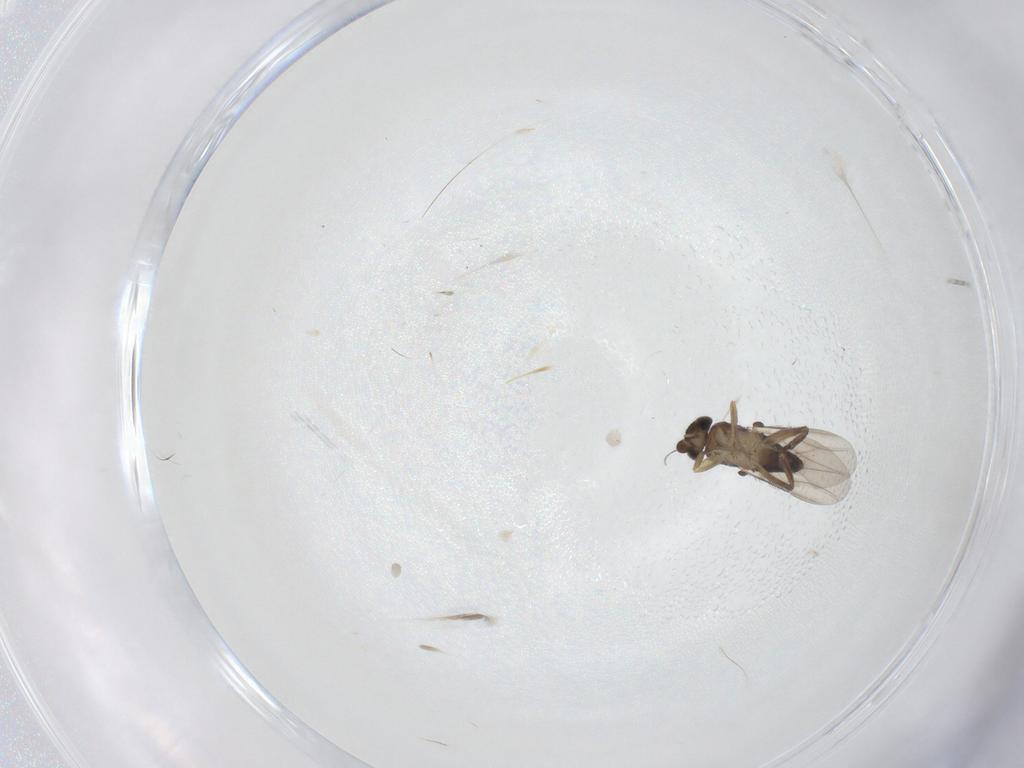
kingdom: Animalia
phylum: Arthropoda
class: Insecta
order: Diptera
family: Phoridae
